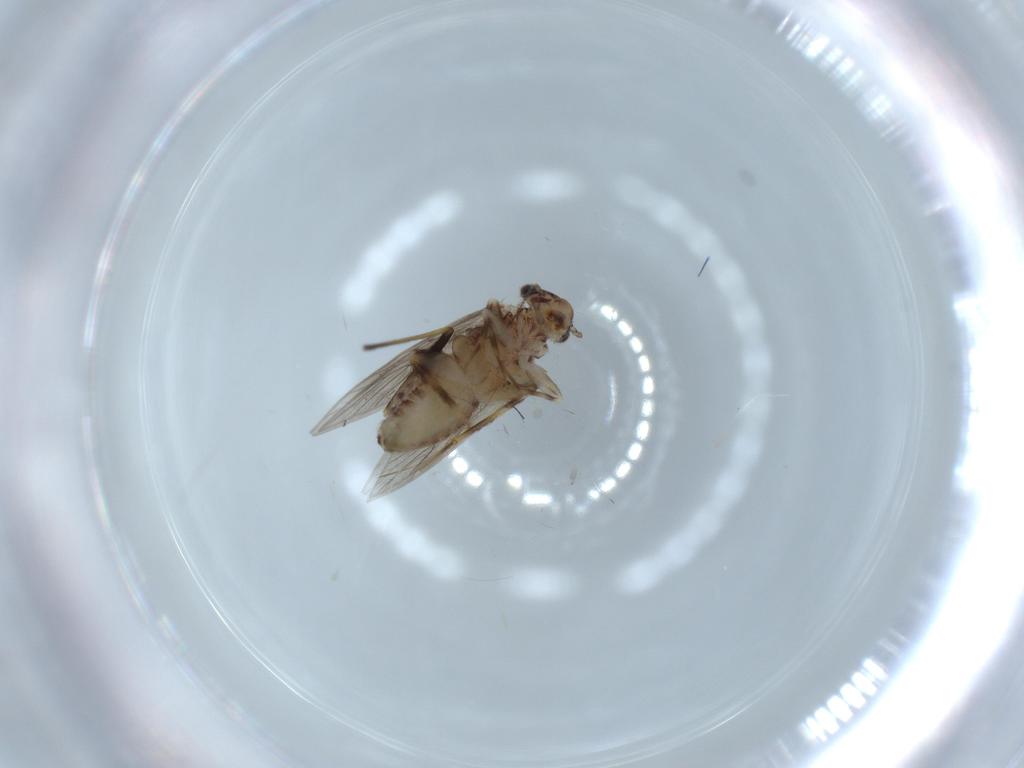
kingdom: Animalia
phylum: Arthropoda
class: Insecta
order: Psocodea
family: Lepidopsocidae
